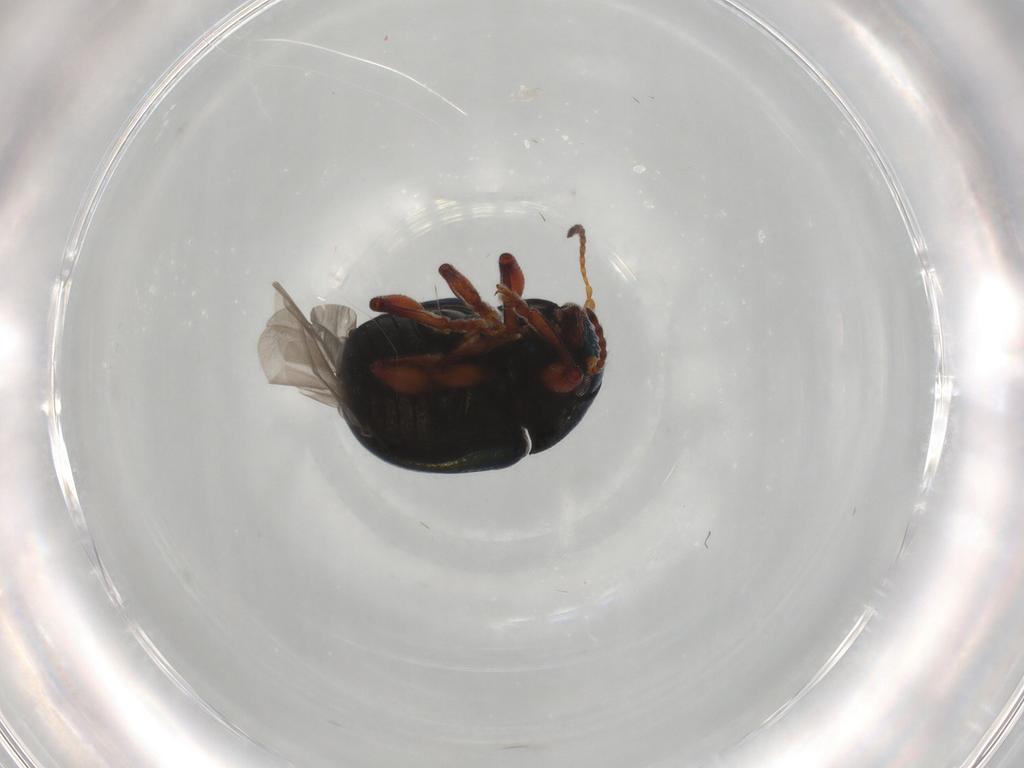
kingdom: Animalia
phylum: Arthropoda
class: Insecta
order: Coleoptera
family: Chrysomelidae
